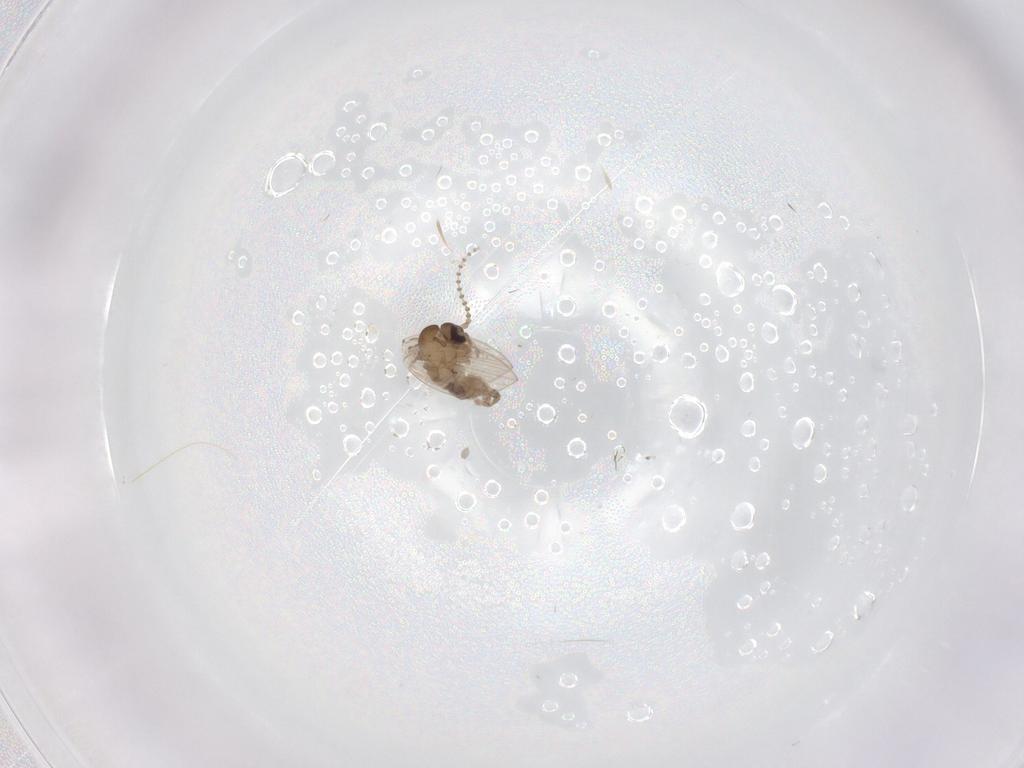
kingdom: Animalia
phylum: Arthropoda
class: Insecta
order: Diptera
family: Psychodidae
